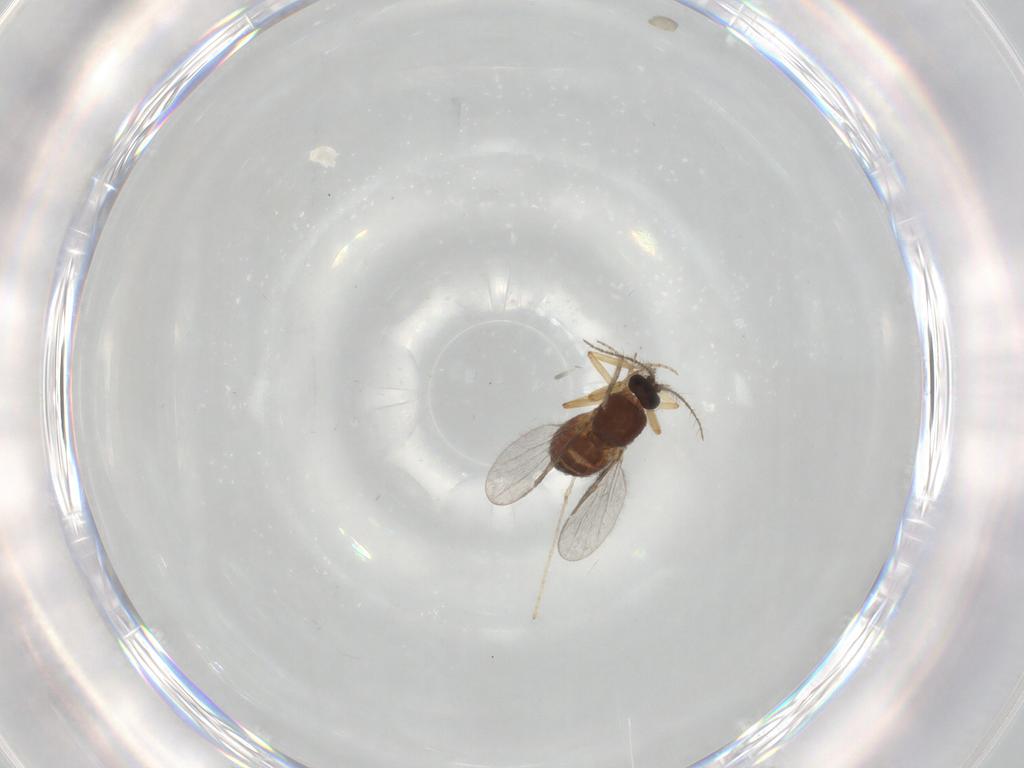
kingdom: Animalia
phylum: Arthropoda
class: Insecta
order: Diptera
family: Ceratopogonidae
